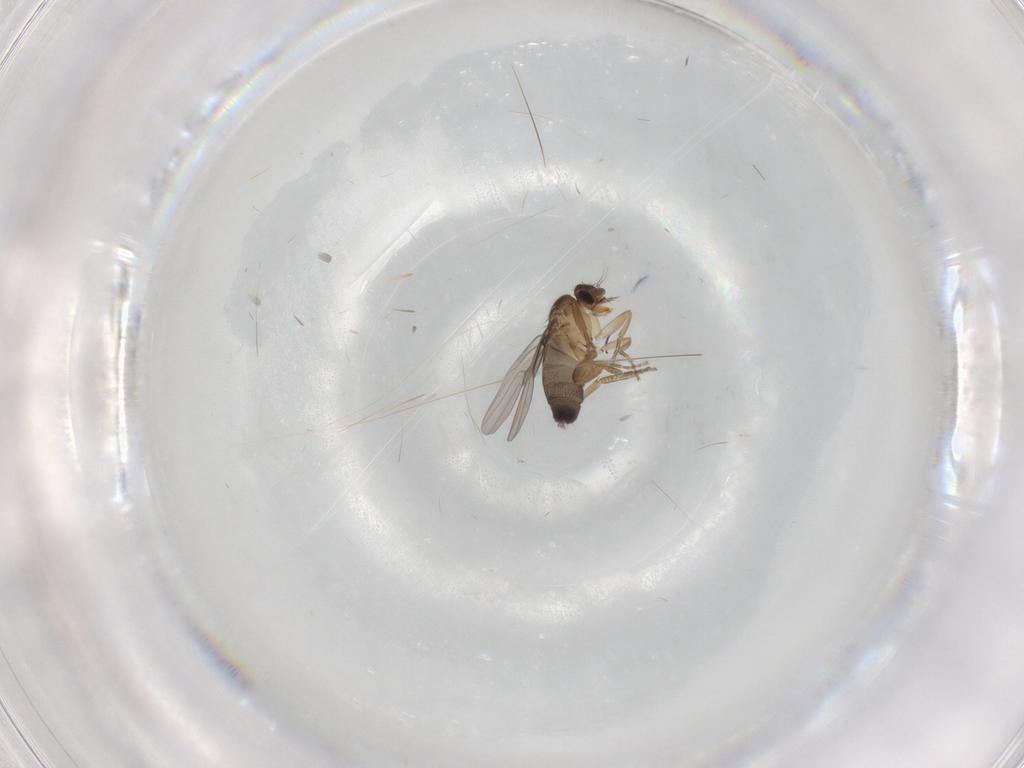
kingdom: Animalia
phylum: Arthropoda
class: Insecta
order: Diptera
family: Phoridae
